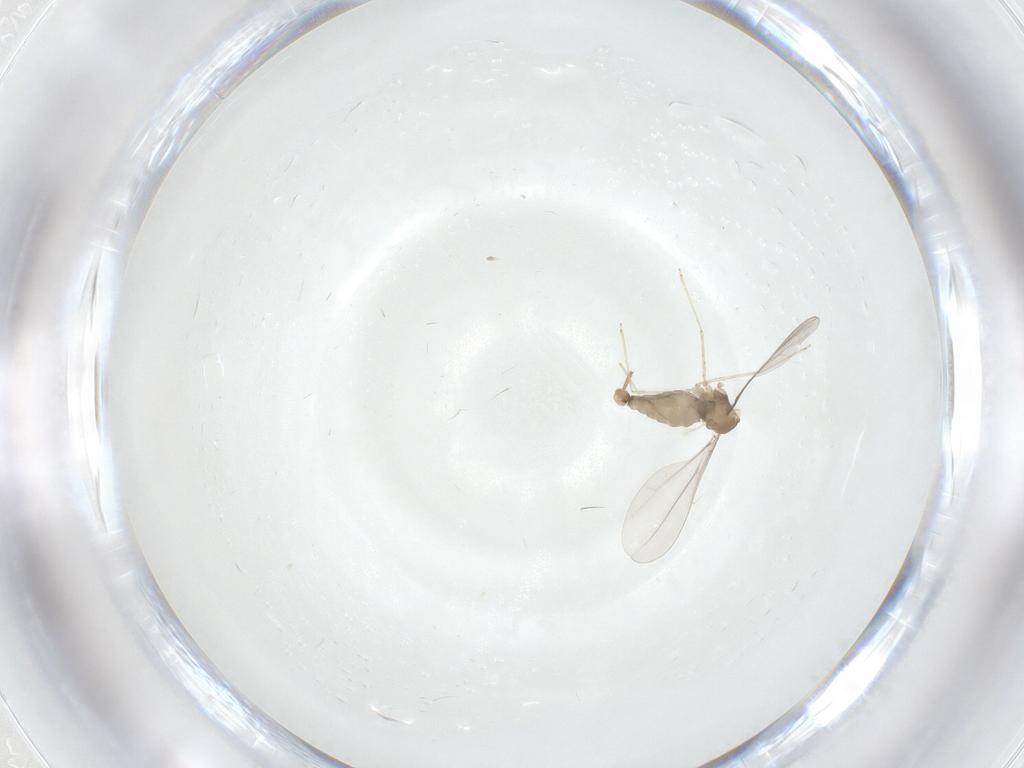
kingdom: Animalia
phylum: Arthropoda
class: Insecta
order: Diptera
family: Cecidomyiidae
